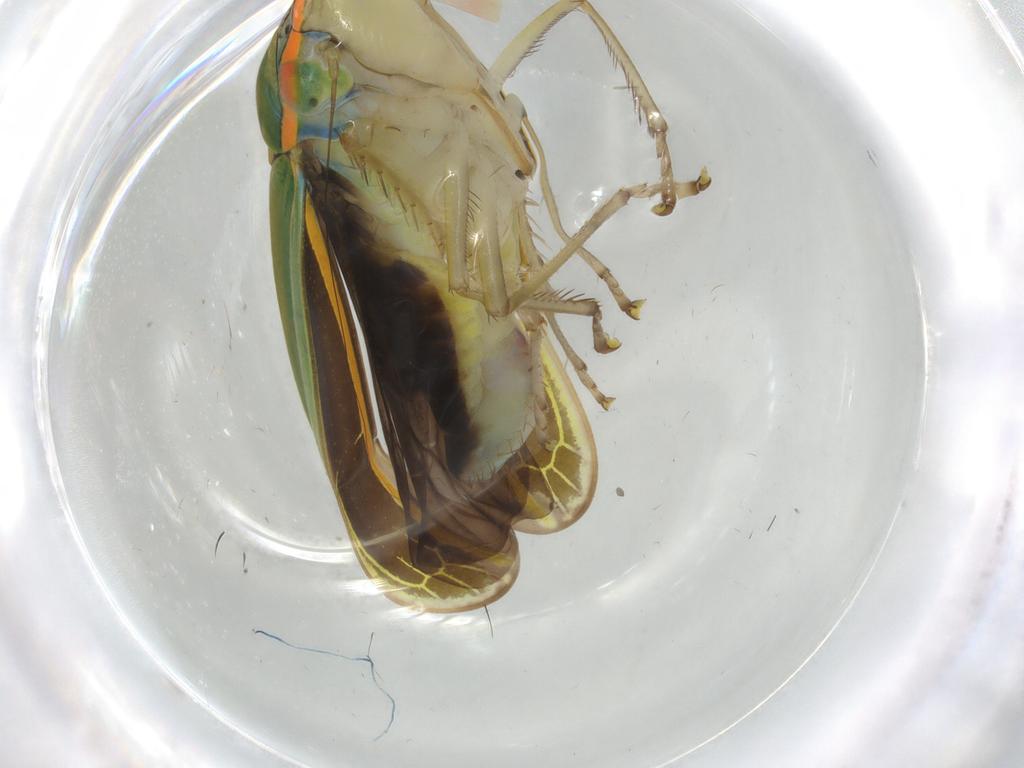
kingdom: Animalia
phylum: Arthropoda
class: Insecta
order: Hemiptera
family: Cicadellidae
